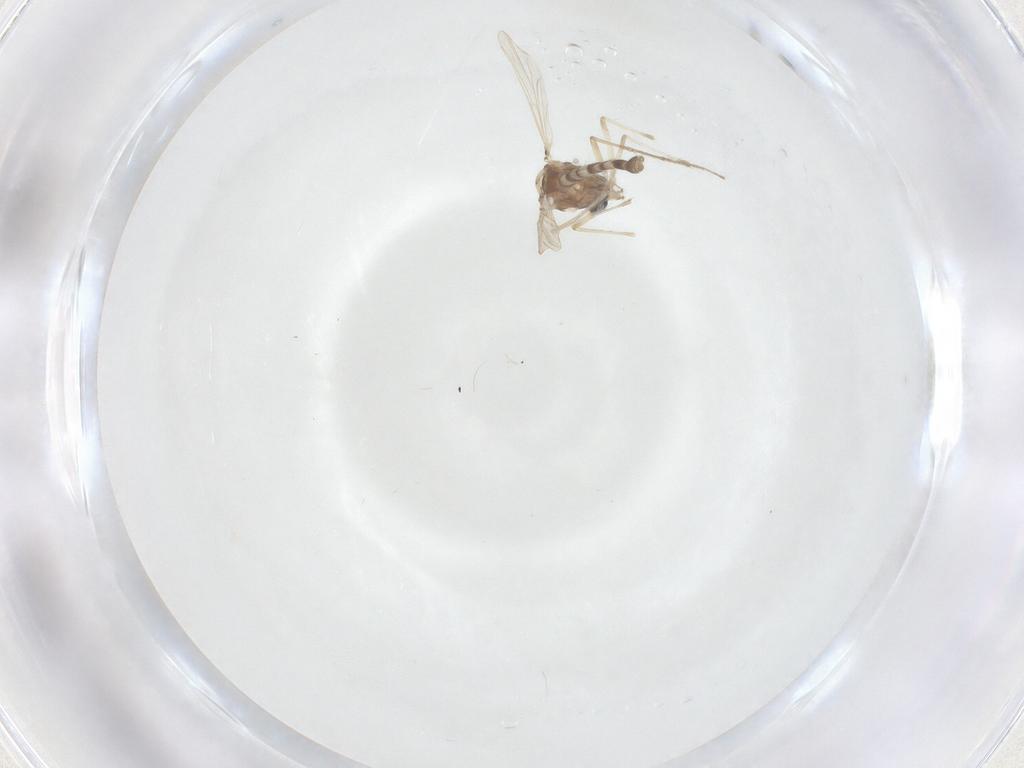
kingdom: Animalia
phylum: Arthropoda
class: Insecta
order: Diptera
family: Chironomidae
